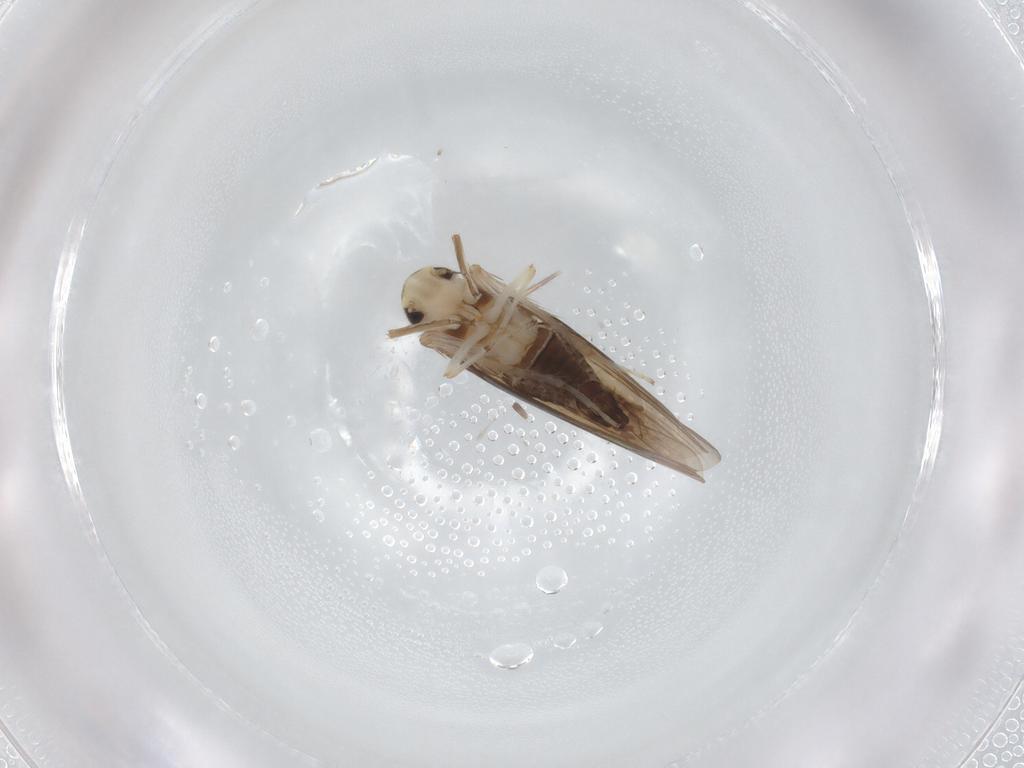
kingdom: Animalia
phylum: Arthropoda
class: Insecta
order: Hemiptera
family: Cicadellidae
